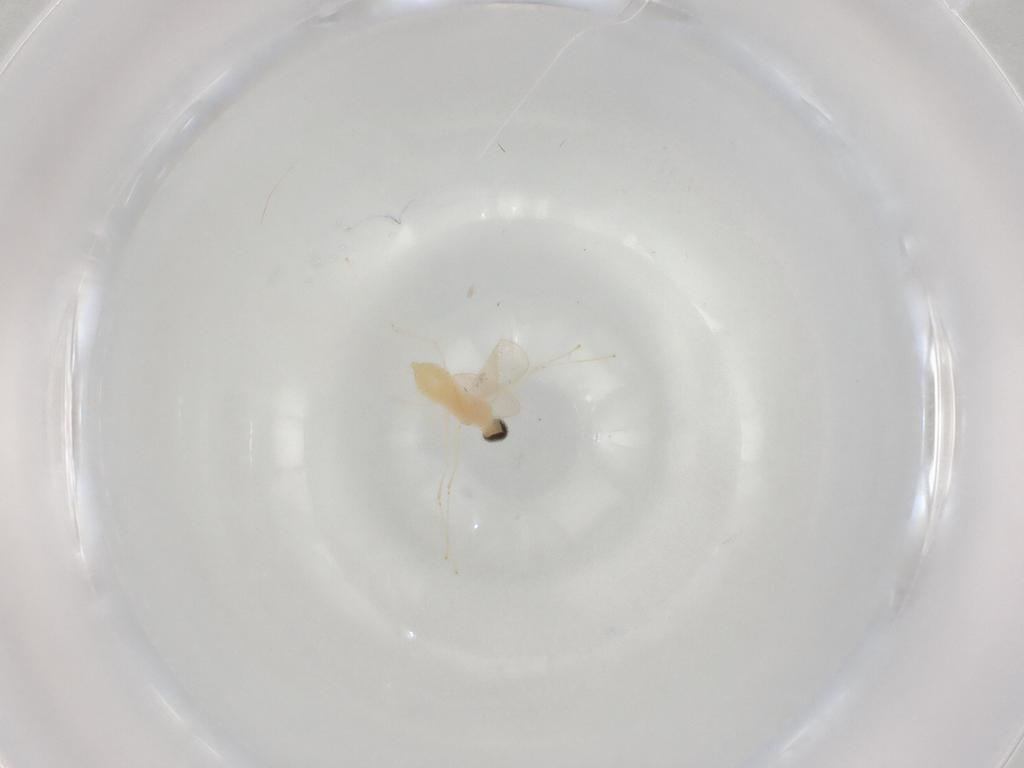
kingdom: Animalia
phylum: Arthropoda
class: Insecta
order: Diptera
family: Cecidomyiidae
